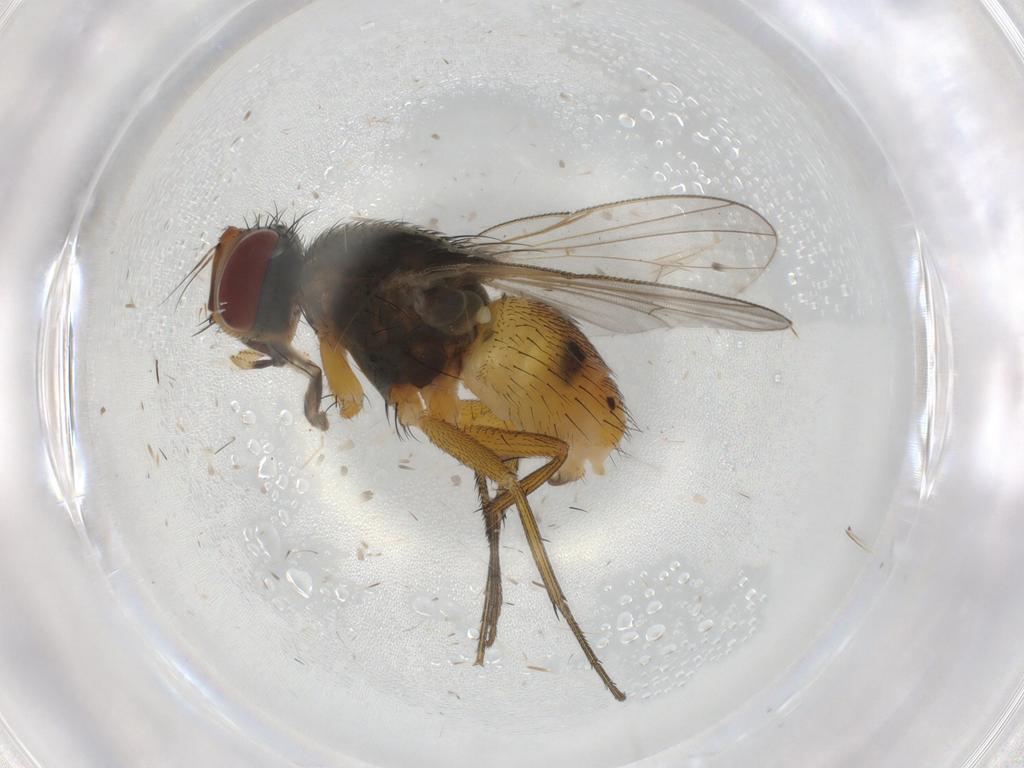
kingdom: Animalia
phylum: Arthropoda
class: Insecta
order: Diptera
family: Muscidae
